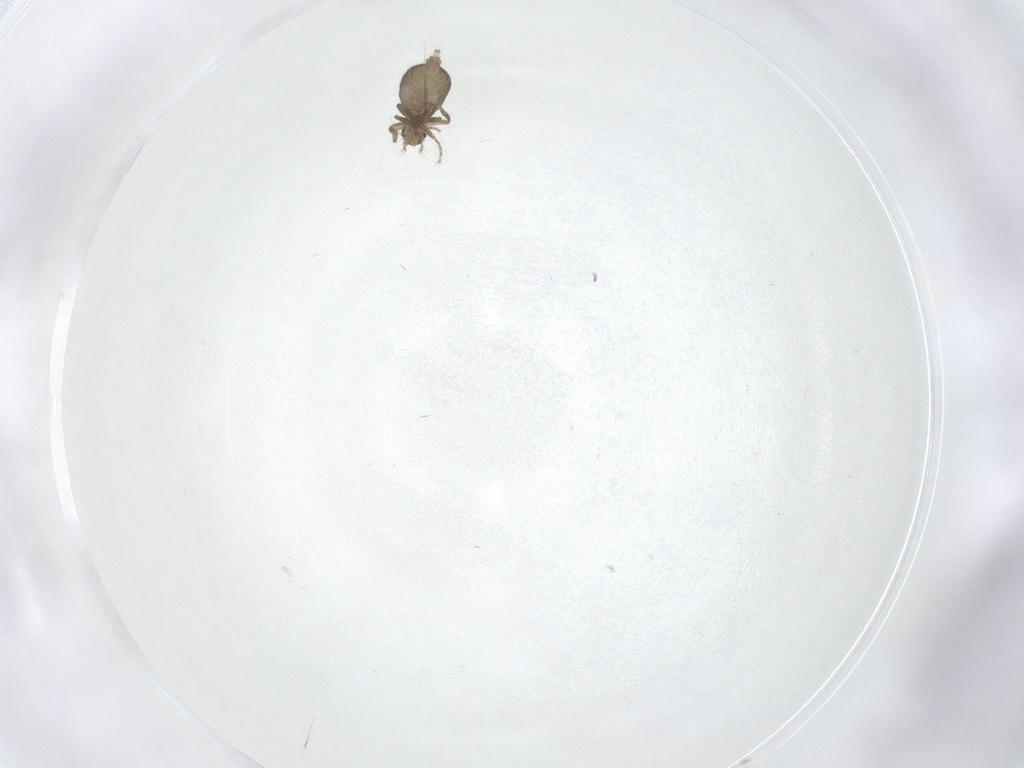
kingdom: Animalia
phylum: Arthropoda
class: Insecta
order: Diptera
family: Phoridae
